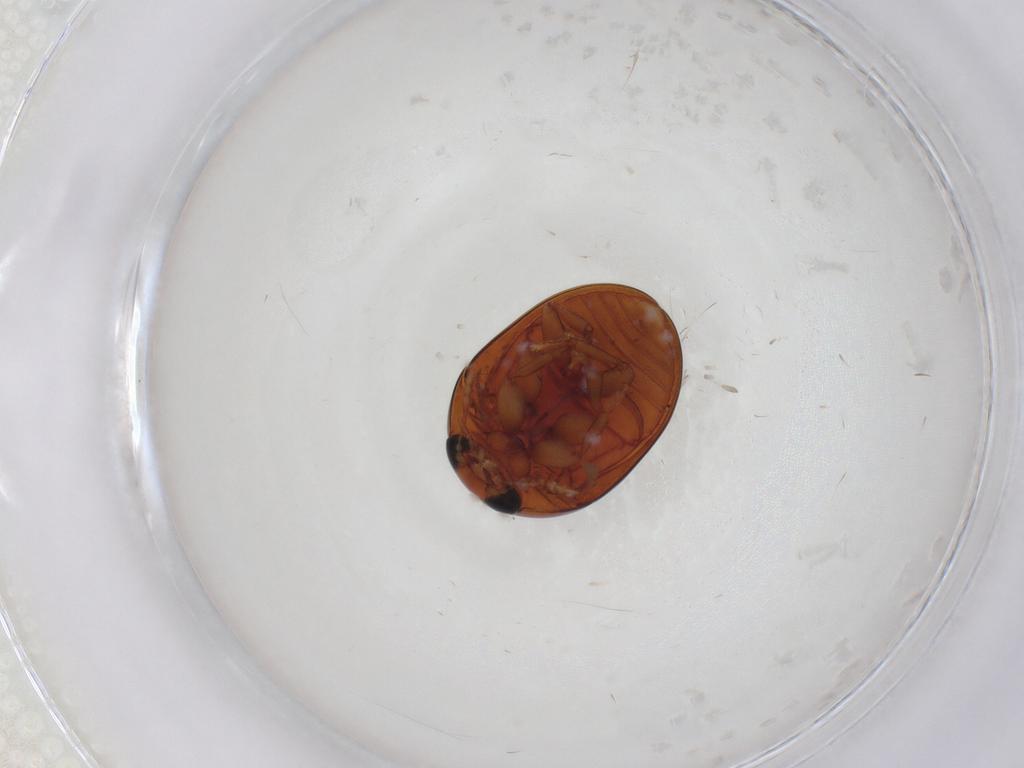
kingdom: Animalia
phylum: Arthropoda
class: Insecta
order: Coleoptera
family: Phalacridae
